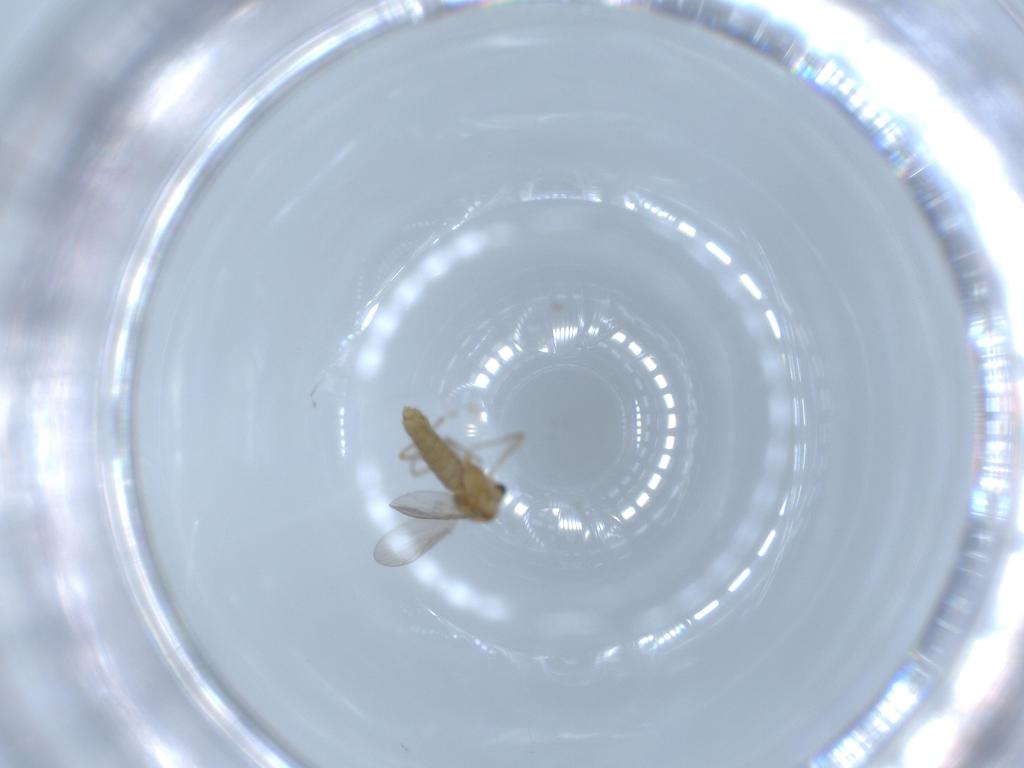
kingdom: Animalia
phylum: Arthropoda
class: Insecta
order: Diptera
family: Chironomidae
